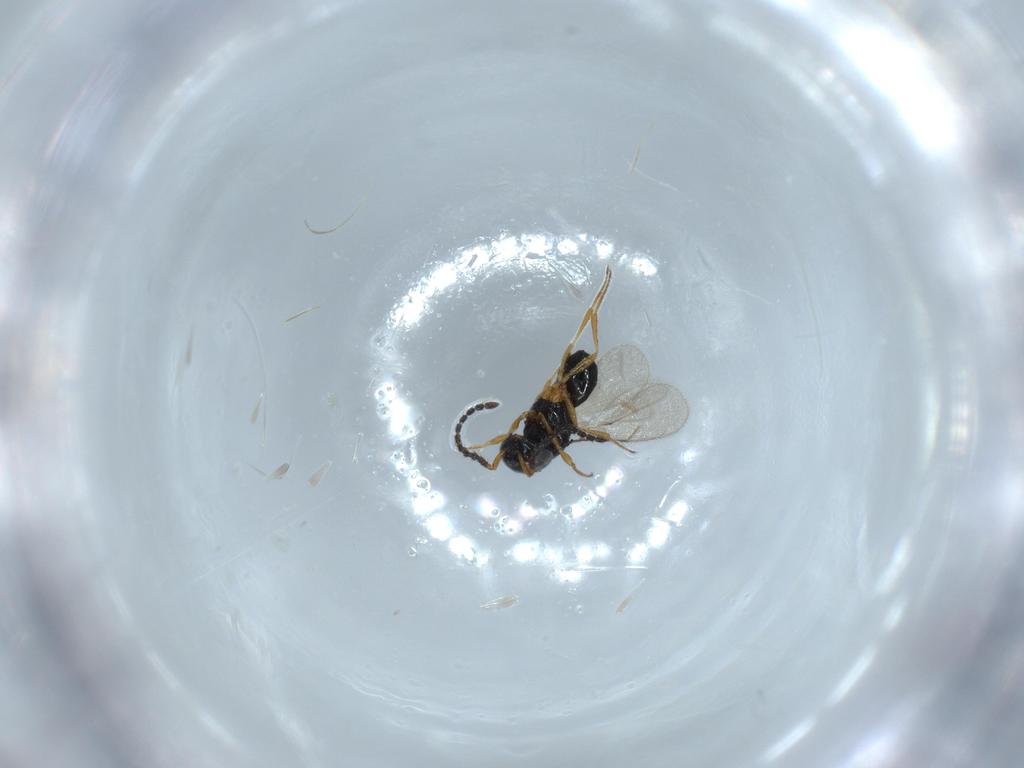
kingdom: Animalia
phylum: Arthropoda
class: Insecta
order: Hymenoptera
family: Scelionidae
